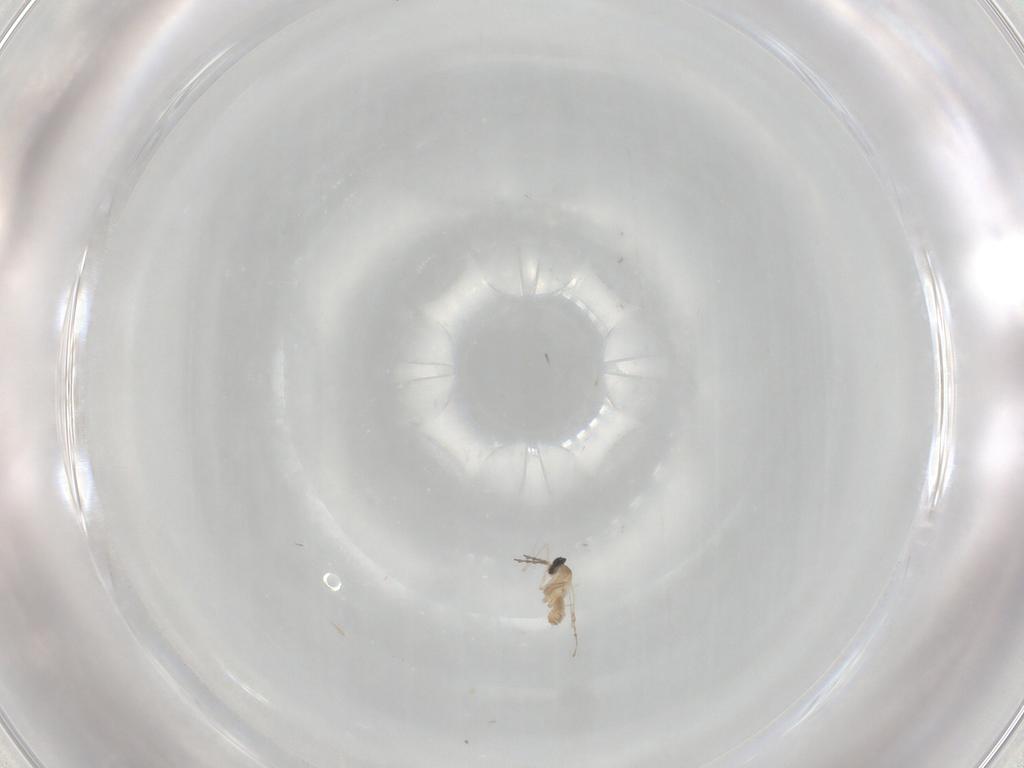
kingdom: Animalia
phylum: Arthropoda
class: Insecta
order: Diptera
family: Cecidomyiidae
